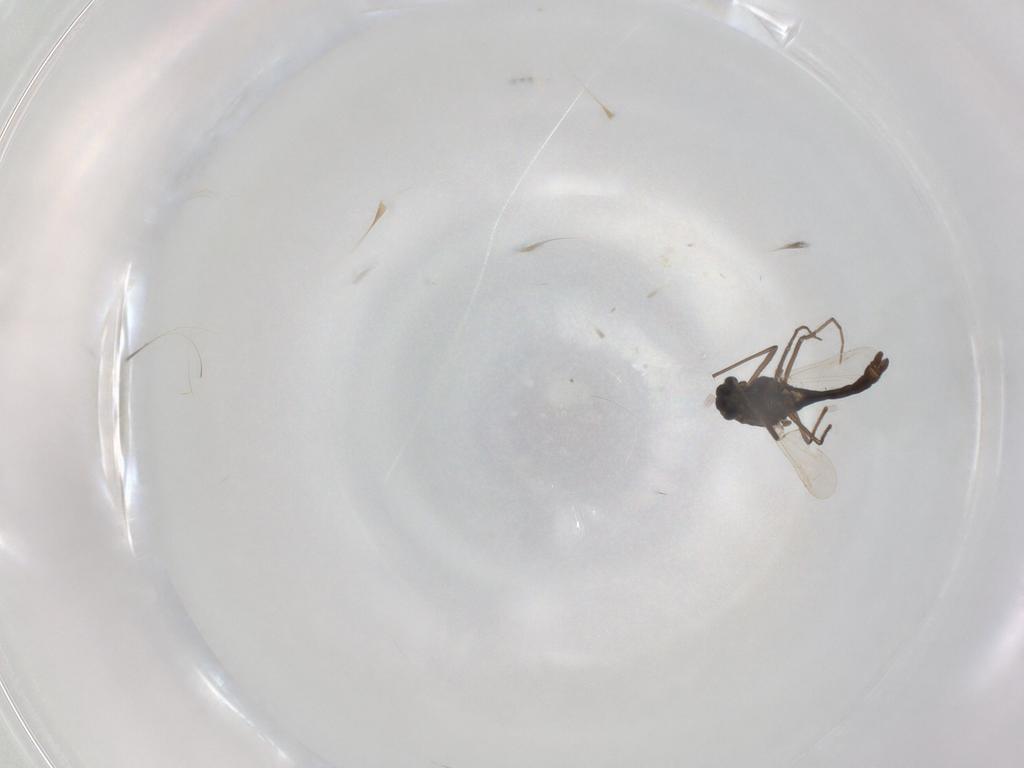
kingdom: Animalia
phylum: Arthropoda
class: Insecta
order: Diptera
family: Chironomidae
